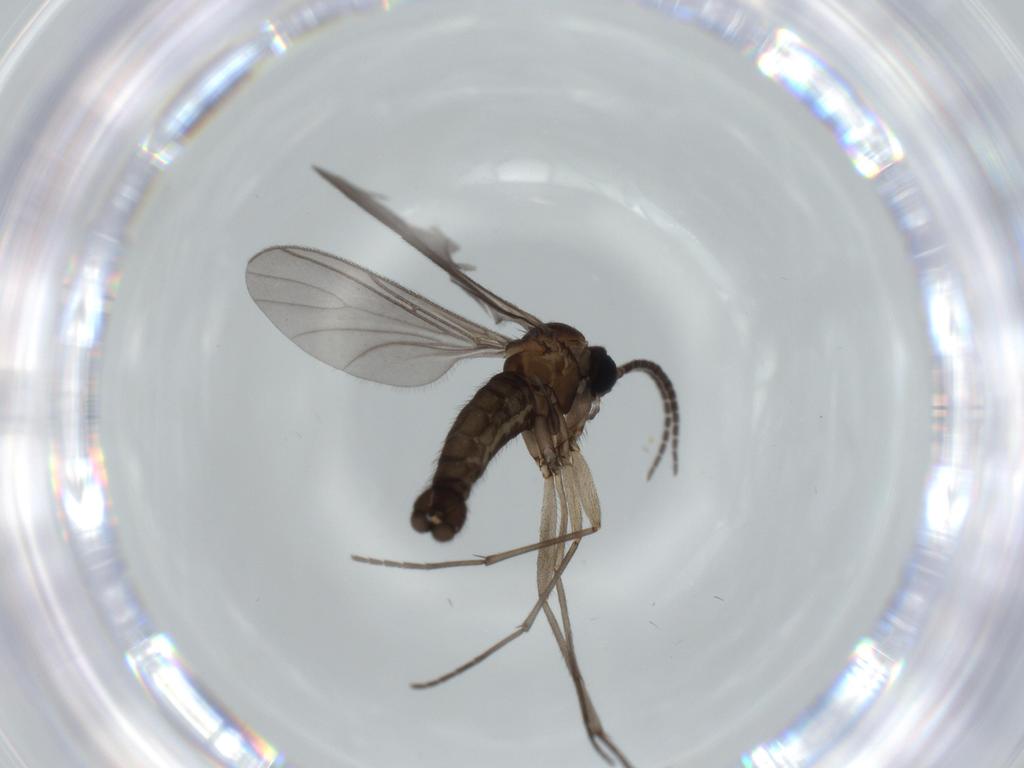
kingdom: Animalia
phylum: Arthropoda
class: Insecta
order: Diptera
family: Sciaridae
